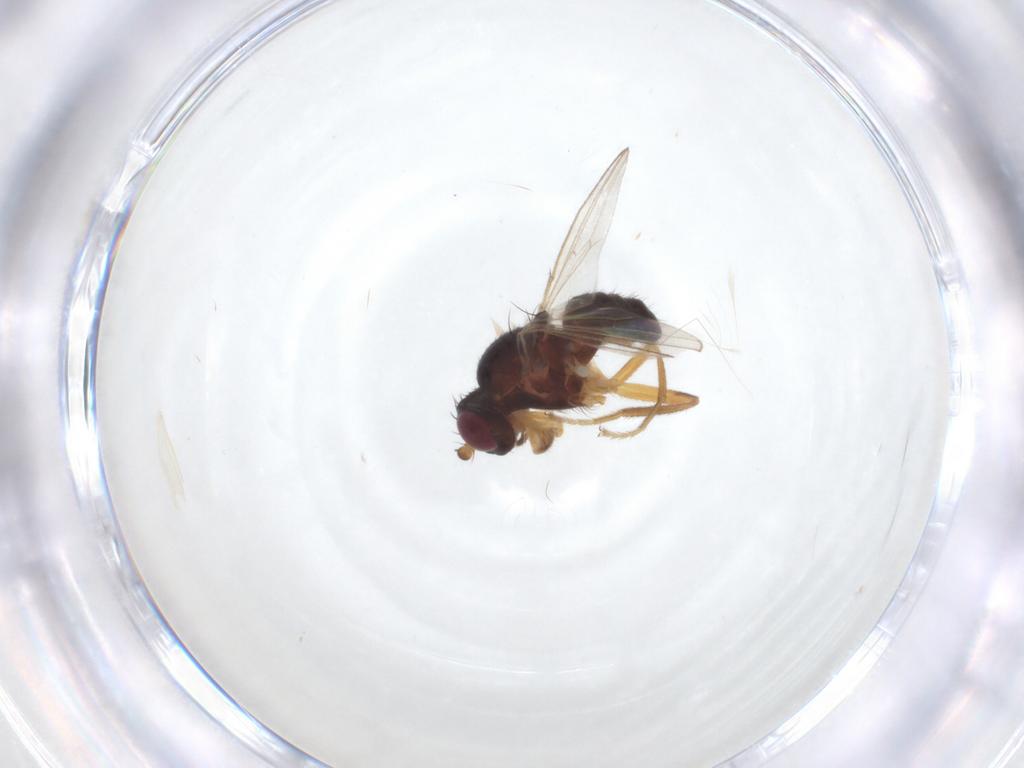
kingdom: Animalia
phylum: Arthropoda
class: Insecta
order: Diptera
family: Cypselosomatidae
